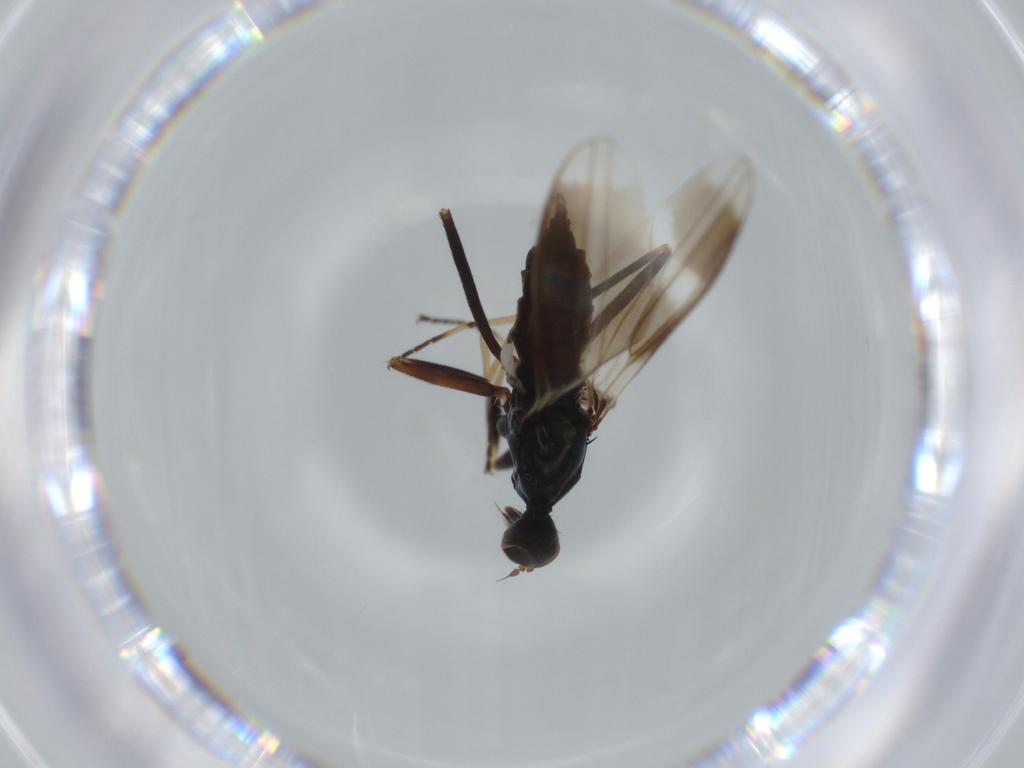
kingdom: Animalia
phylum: Arthropoda
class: Insecta
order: Diptera
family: Hybotidae
